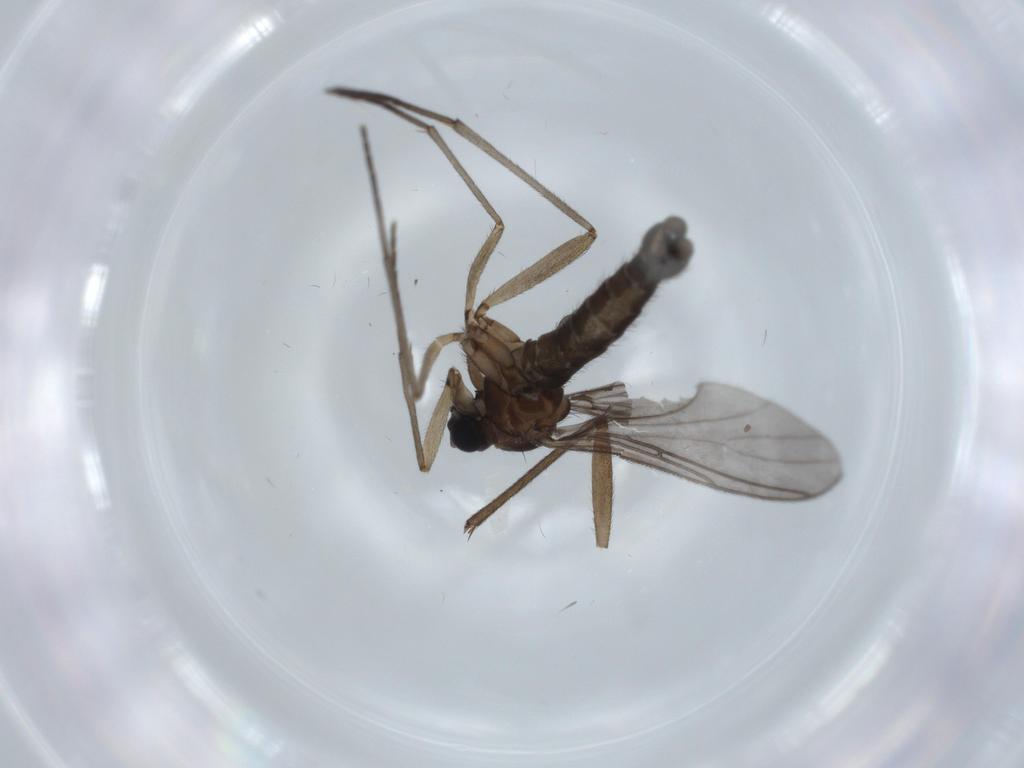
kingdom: Animalia
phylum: Arthropoda
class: Insecta
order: Diptera
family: Sciaridae
